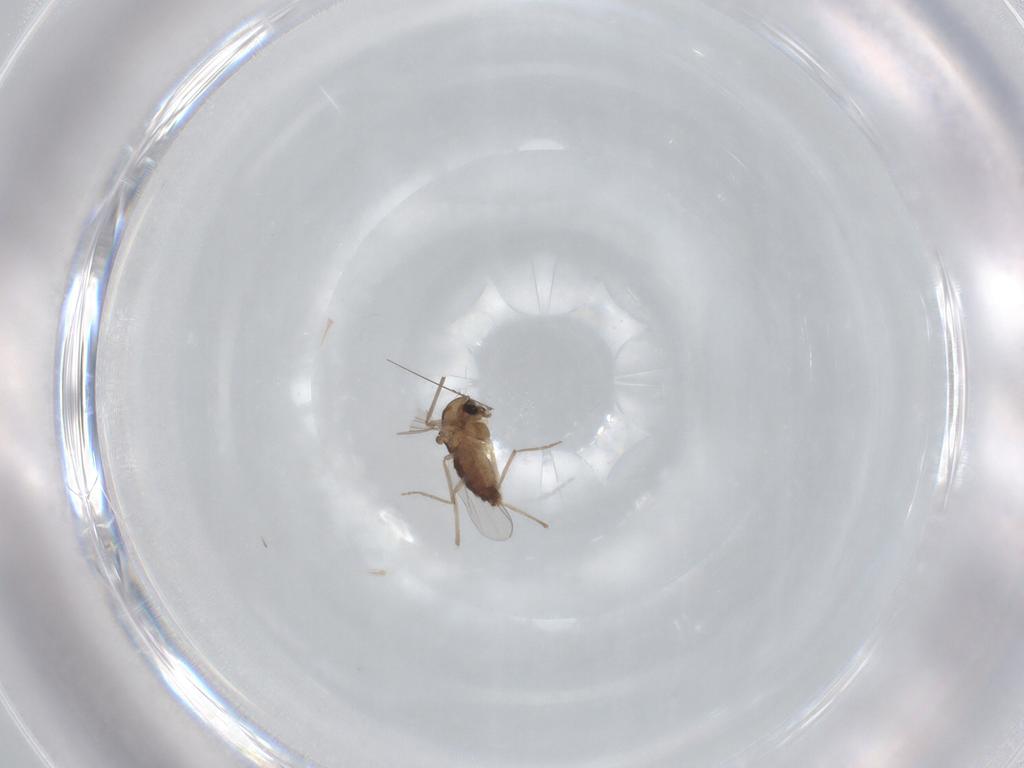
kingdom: Animalia
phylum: Arthropoda
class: Insecta
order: Diptera
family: Chironomidae
